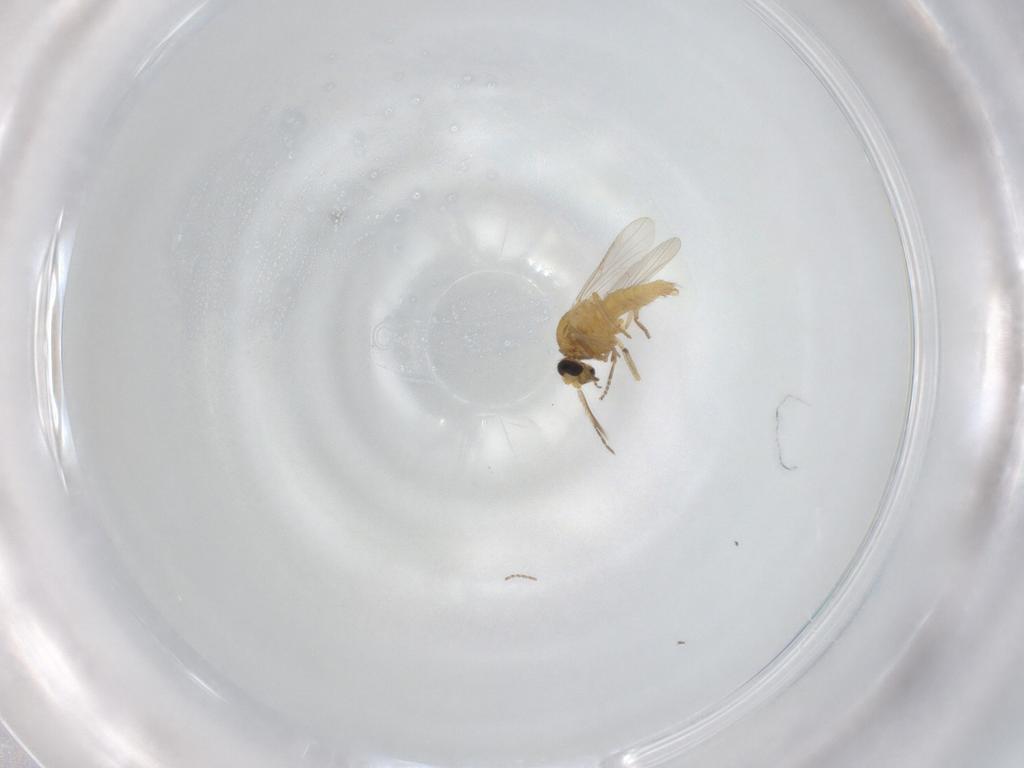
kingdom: Animalia
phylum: Arthropoda
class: Insecta
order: Diptera
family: Ceratopogonidae
